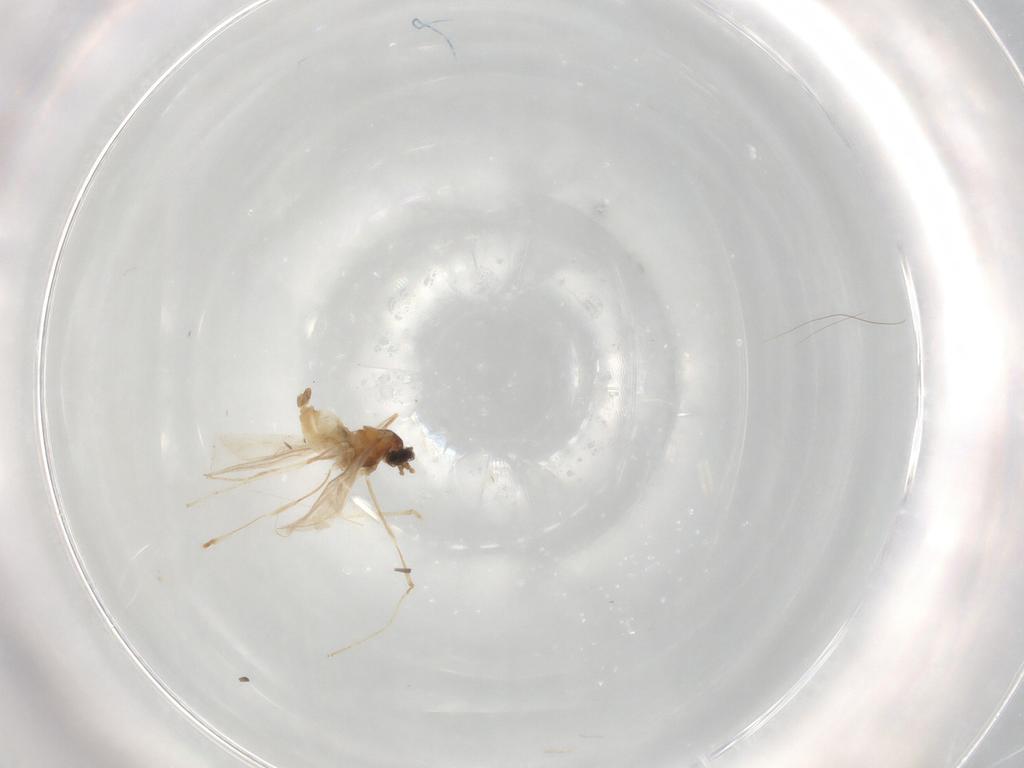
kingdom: Animalia
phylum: Arthropoda
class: Insecta
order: Diptera
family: Cecidomyiidae
